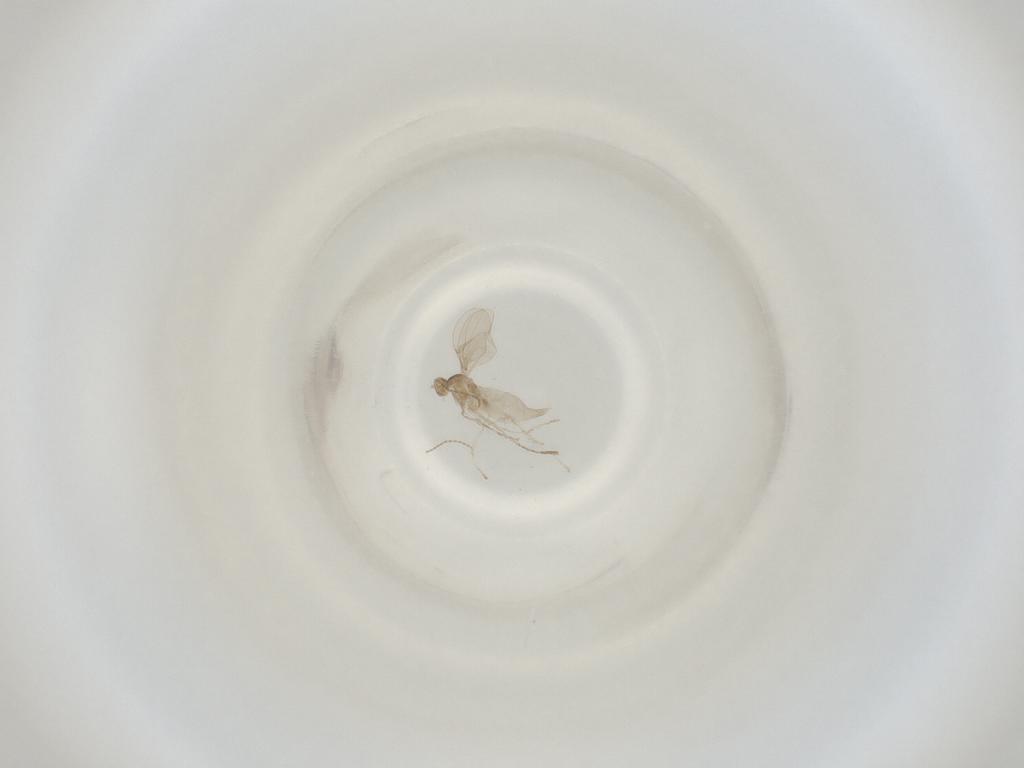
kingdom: Animalia
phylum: Arthropoda
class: Insecta
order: Diptera
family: Cecidomyiidae
